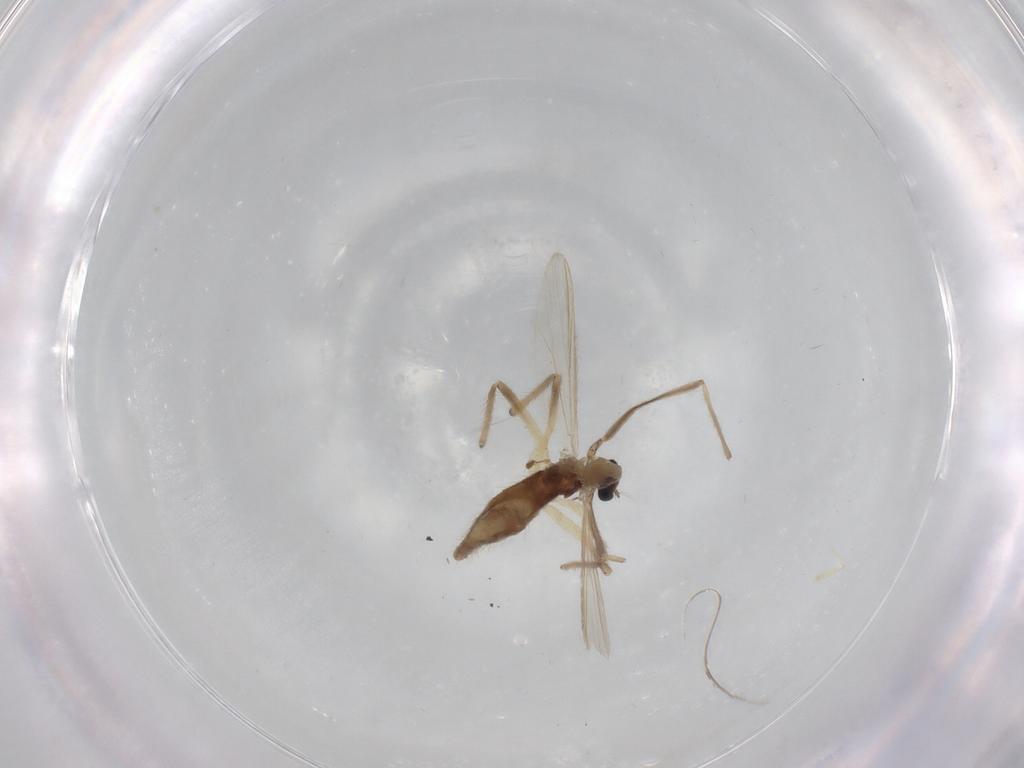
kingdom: Animalia
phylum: Arthropoda
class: Insecta
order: Diptera
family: Chironomidae
